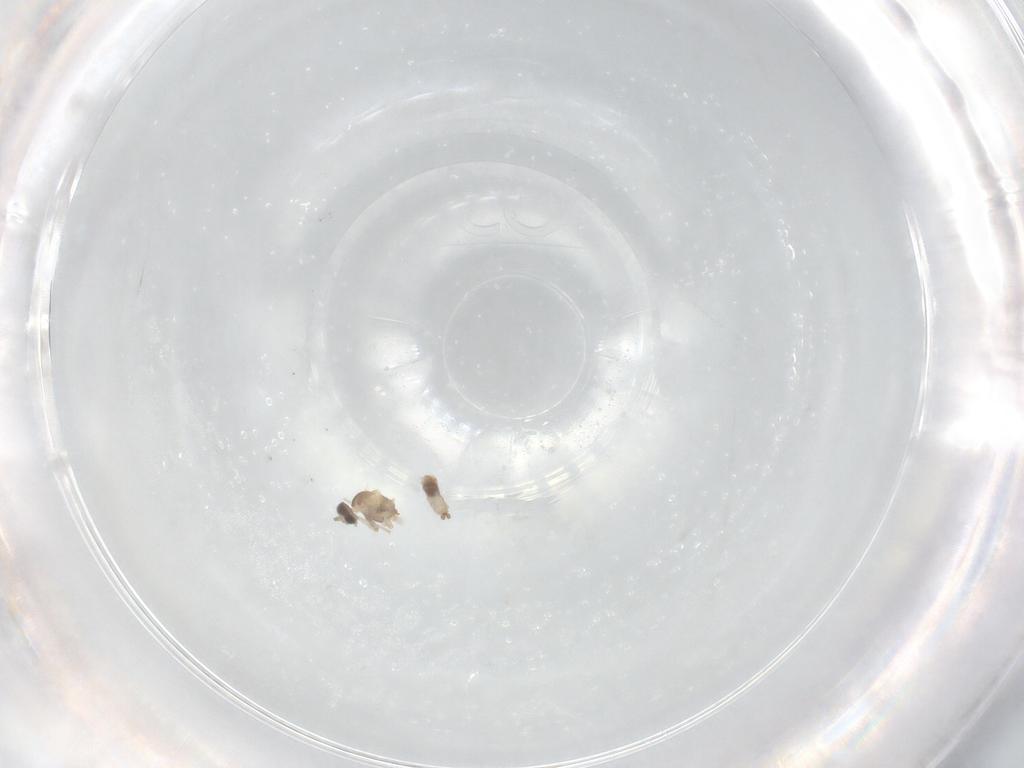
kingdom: Animalia
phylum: Arthropoda
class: Insecta
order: Diptera
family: Cecidomyiidae
